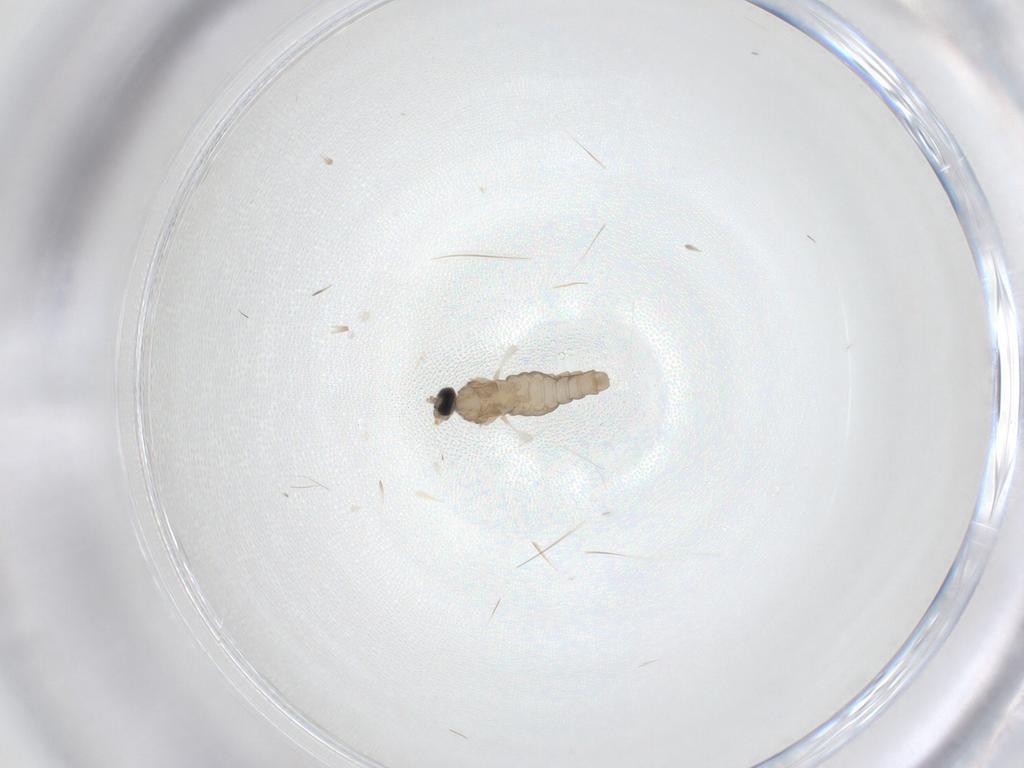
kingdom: Animalia
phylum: Arthropoda
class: Insecta
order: Diptera
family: Cecidomyiidae
